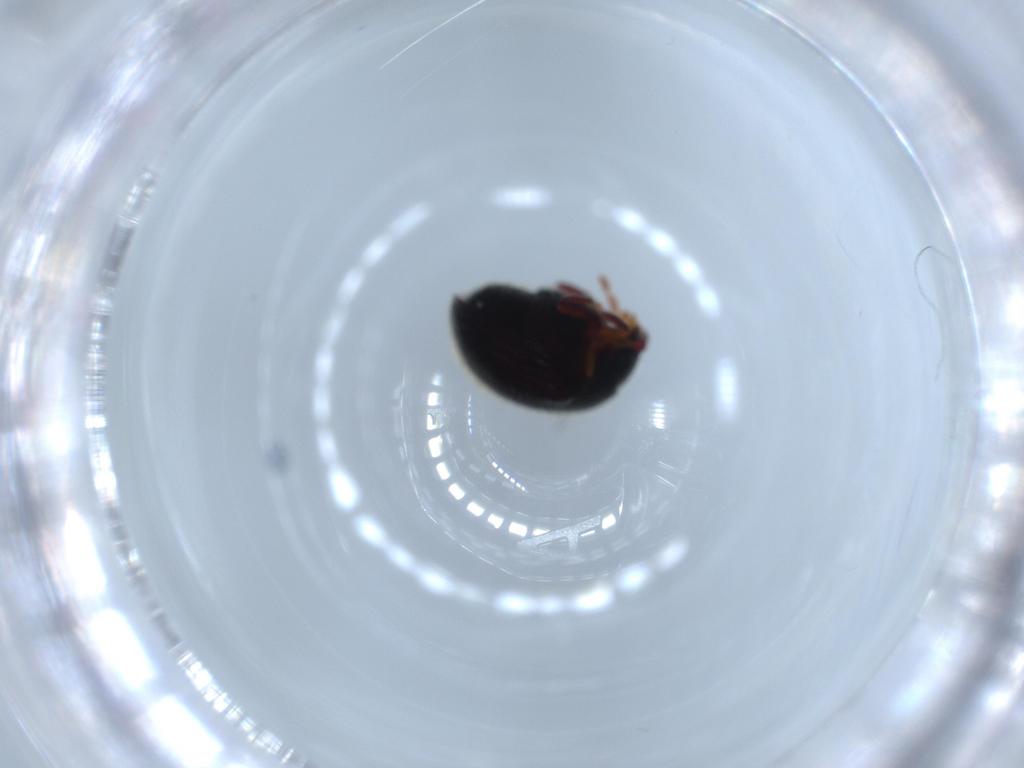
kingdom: Animalia
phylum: Arthropoda
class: Insecta
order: Coleoptera
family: Ptinidae
